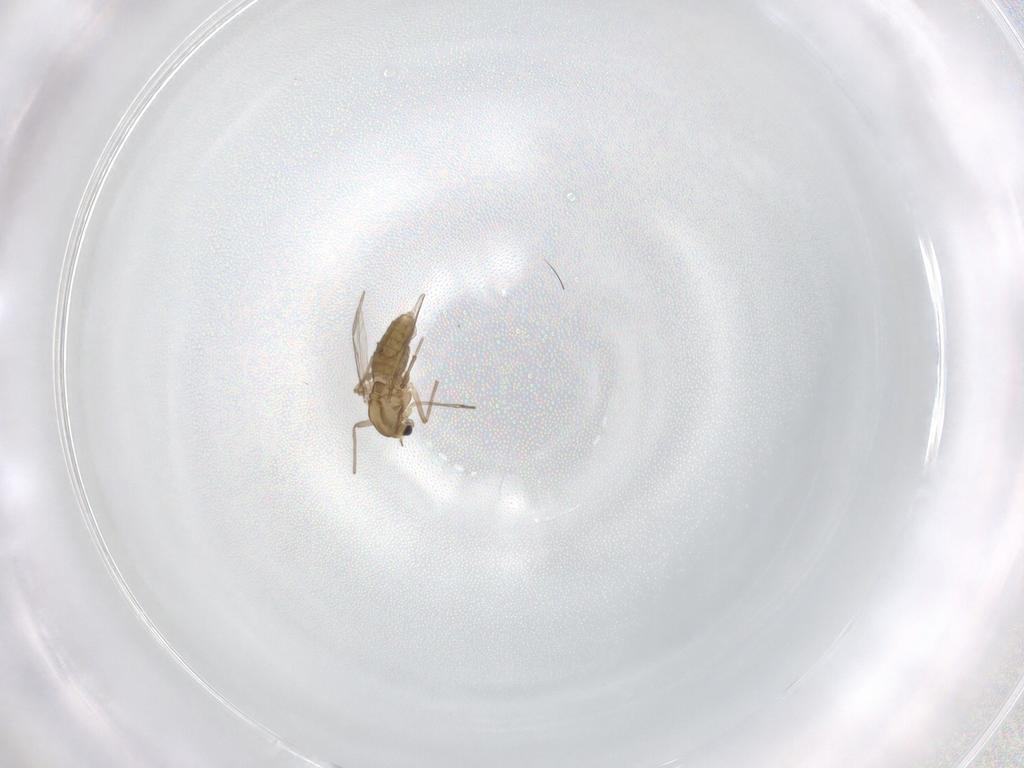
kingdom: Animalia
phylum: Arthropoda
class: Insecta
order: Diptera
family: Chironomidae
